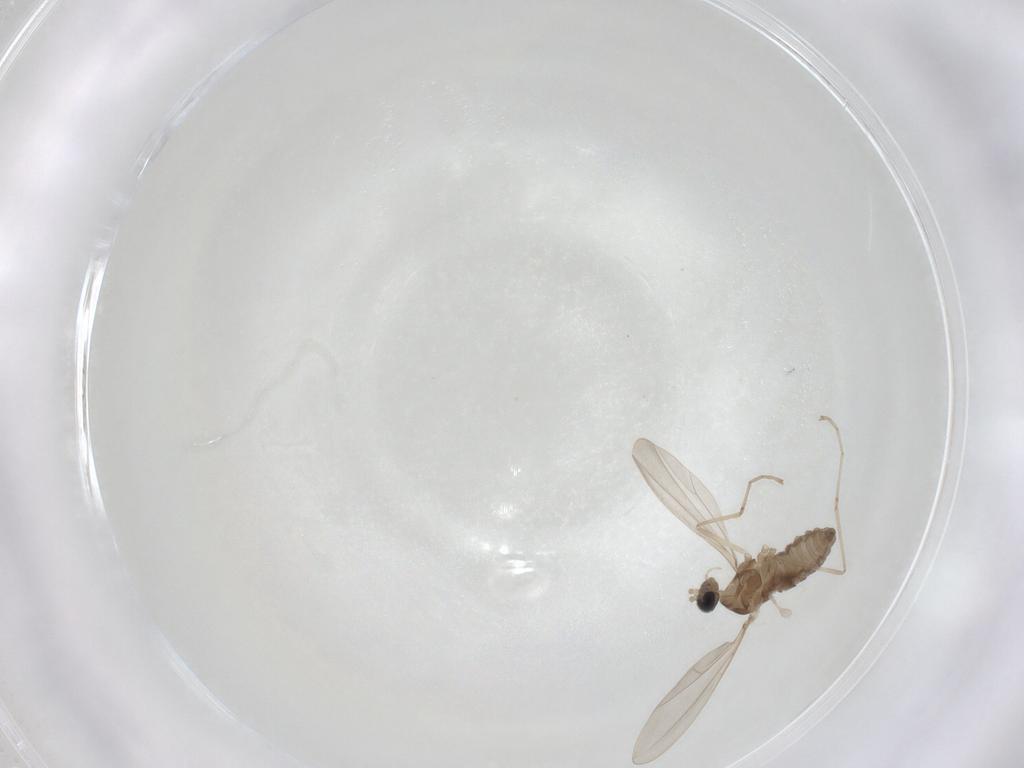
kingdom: Animalia
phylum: Arthropoda
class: Insecta
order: Diptera
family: Cecidomyiidae
